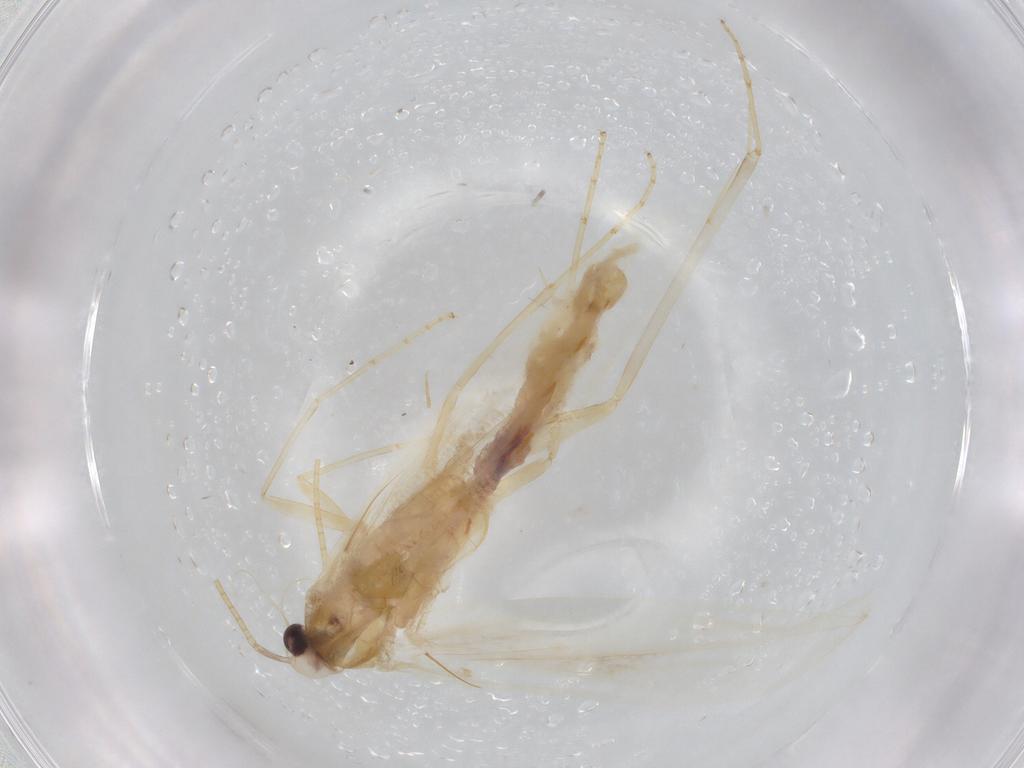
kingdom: Animalia
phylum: Arthropoda
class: Insecta
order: Lepidoptera
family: Xyloryctidae
